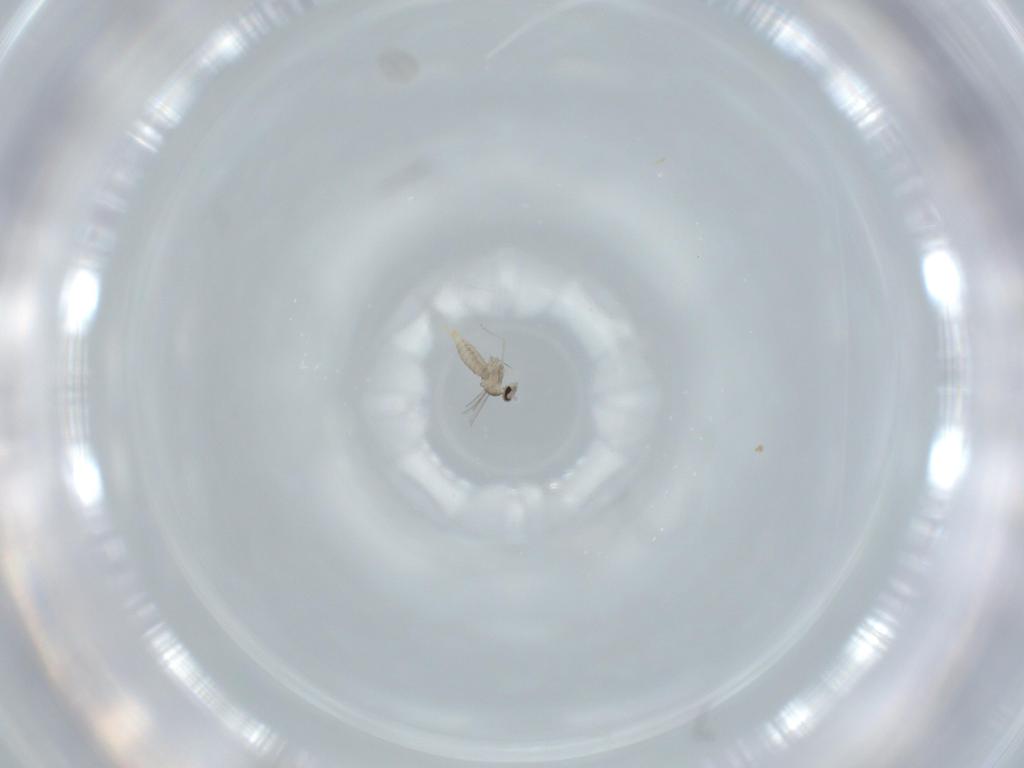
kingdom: Animalia
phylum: Arthropoda
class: Insecta
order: Diptera
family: Cecidomyiidae
